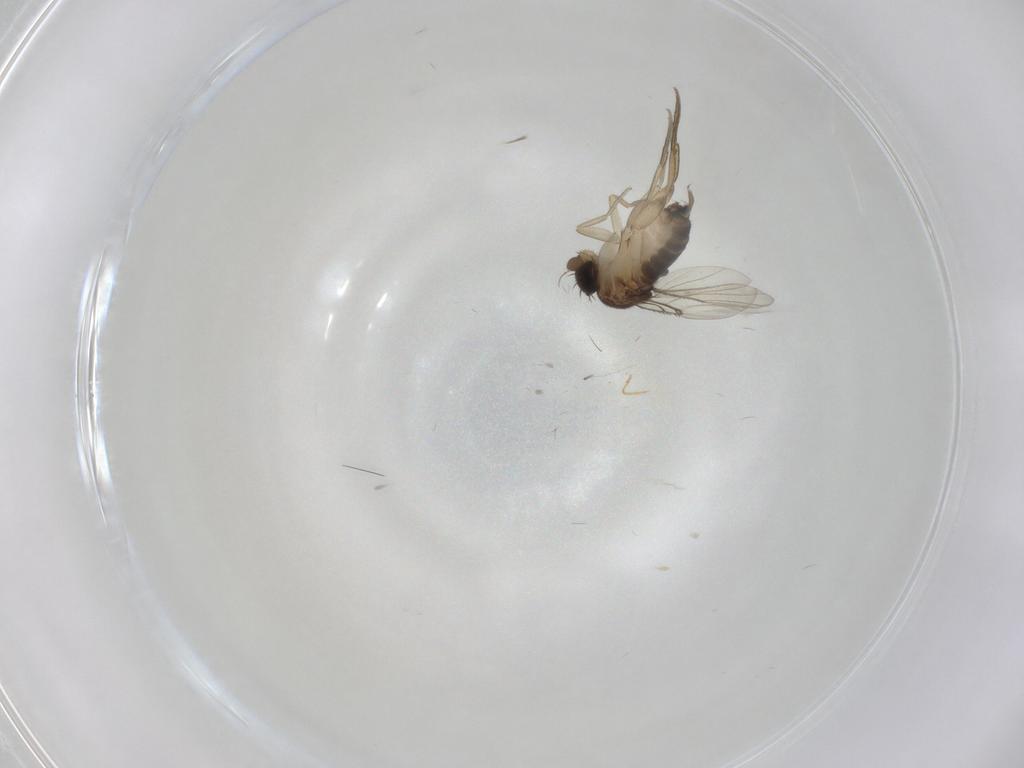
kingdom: Animalia
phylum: Arthropoda
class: Insecta
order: Diptera
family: Cecidomyiidae
